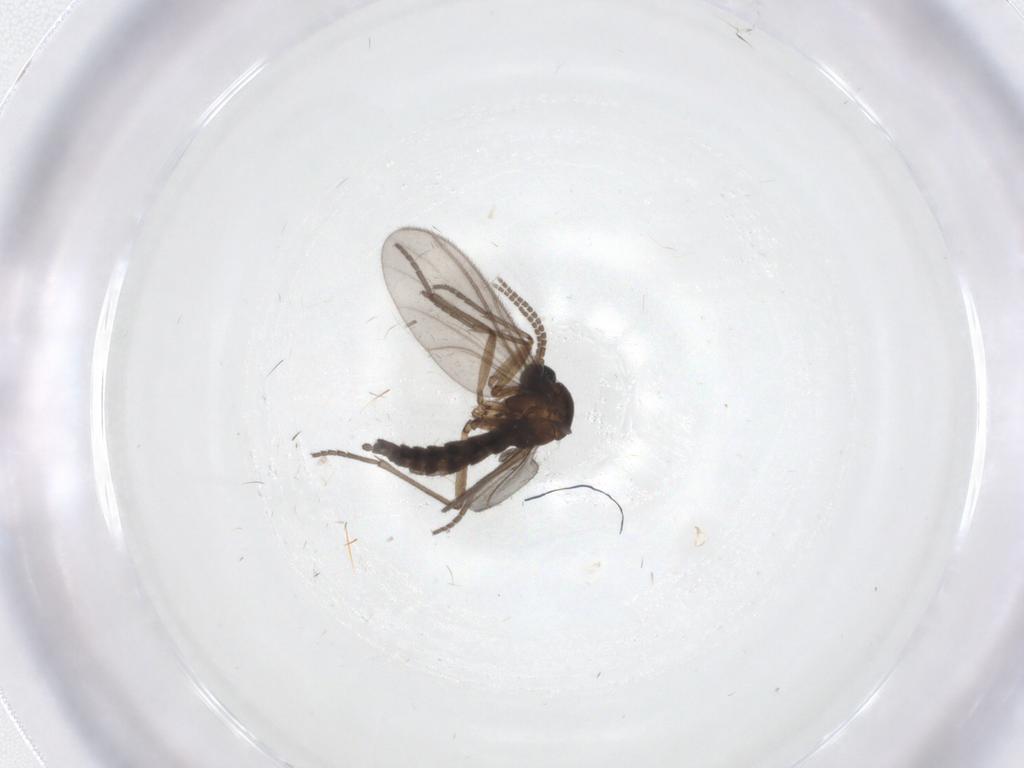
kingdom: Animalia
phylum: Arthropoda
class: Insecta
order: Diptera
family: Sciaridae
